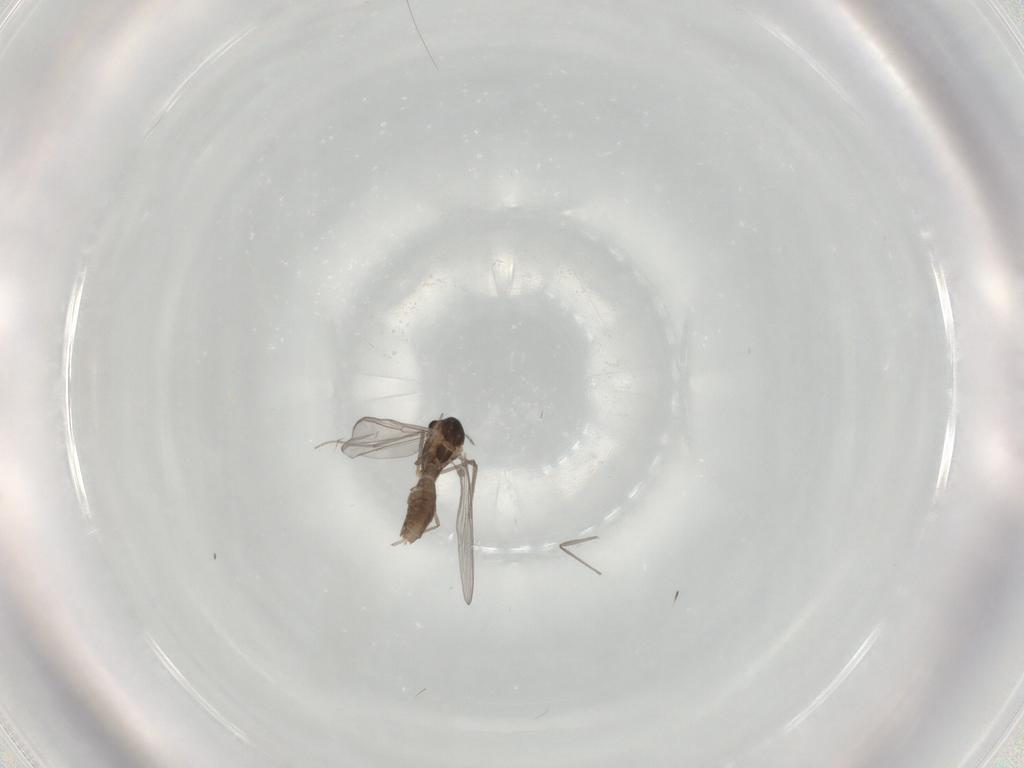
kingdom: Animalia
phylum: Arthropoda
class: Insecta
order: Diptera
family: Chironomidae
